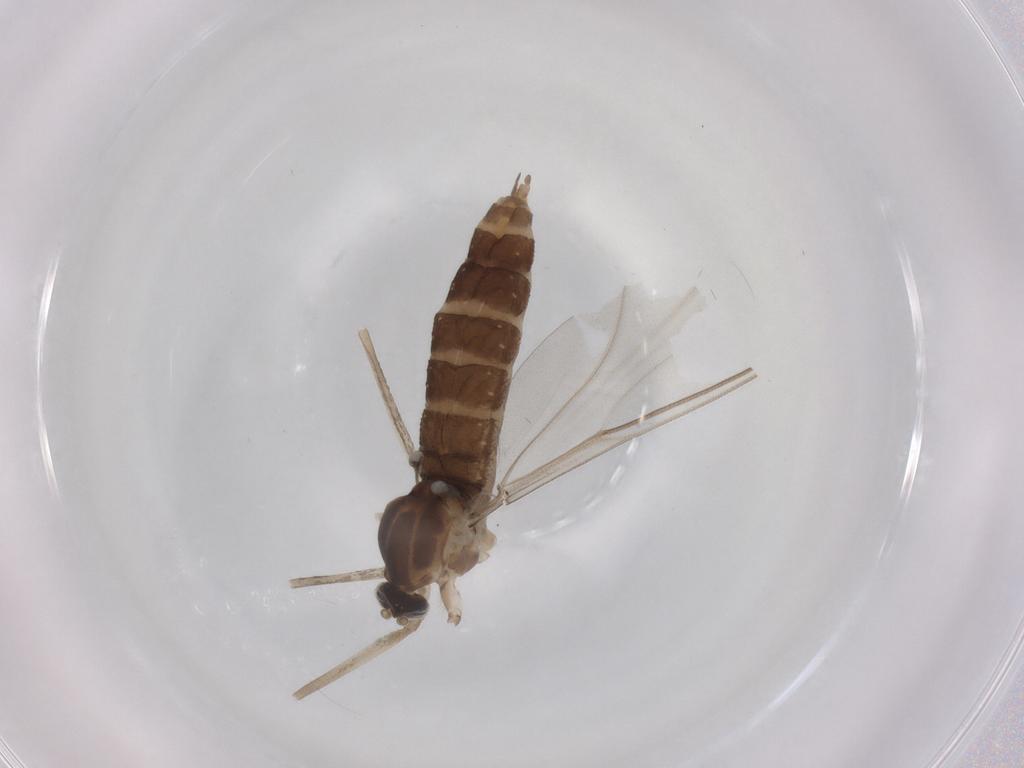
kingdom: Animalia
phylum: Arthropoda
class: Insecta
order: Diptera
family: Cecidomyiidae
